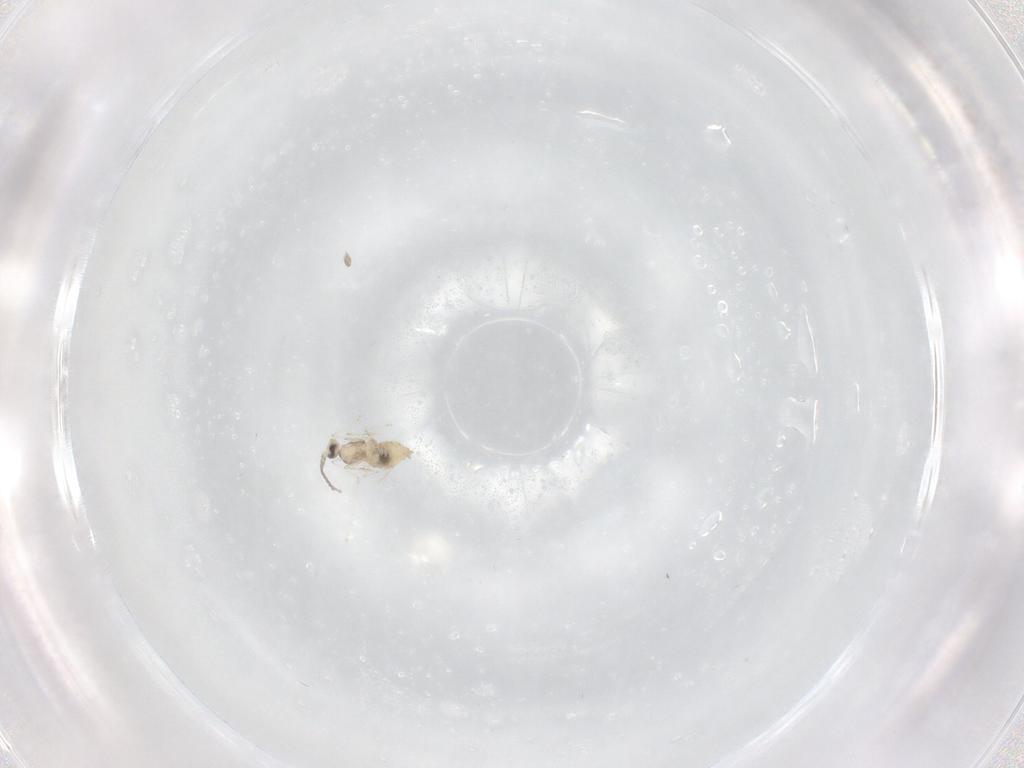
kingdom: Animalia
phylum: Arthropoda
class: Insecta
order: Diptera
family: Cecidomyiidae
